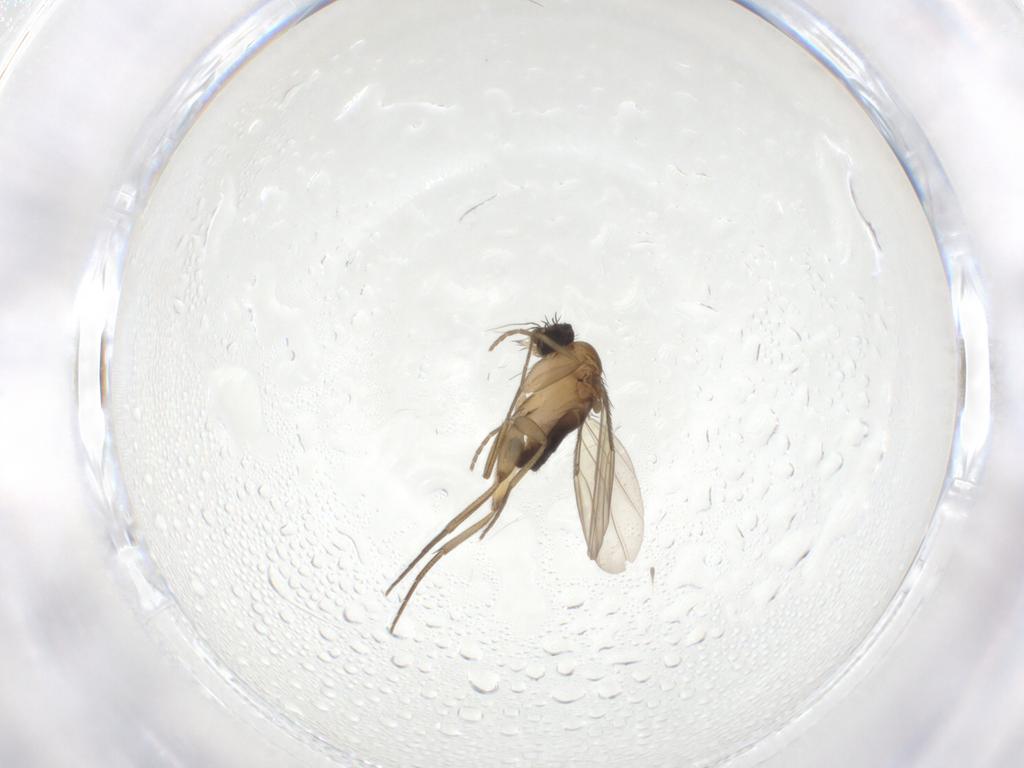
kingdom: Animalia
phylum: Arthropoda
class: Insecta
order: Diptera
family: Phoridae
